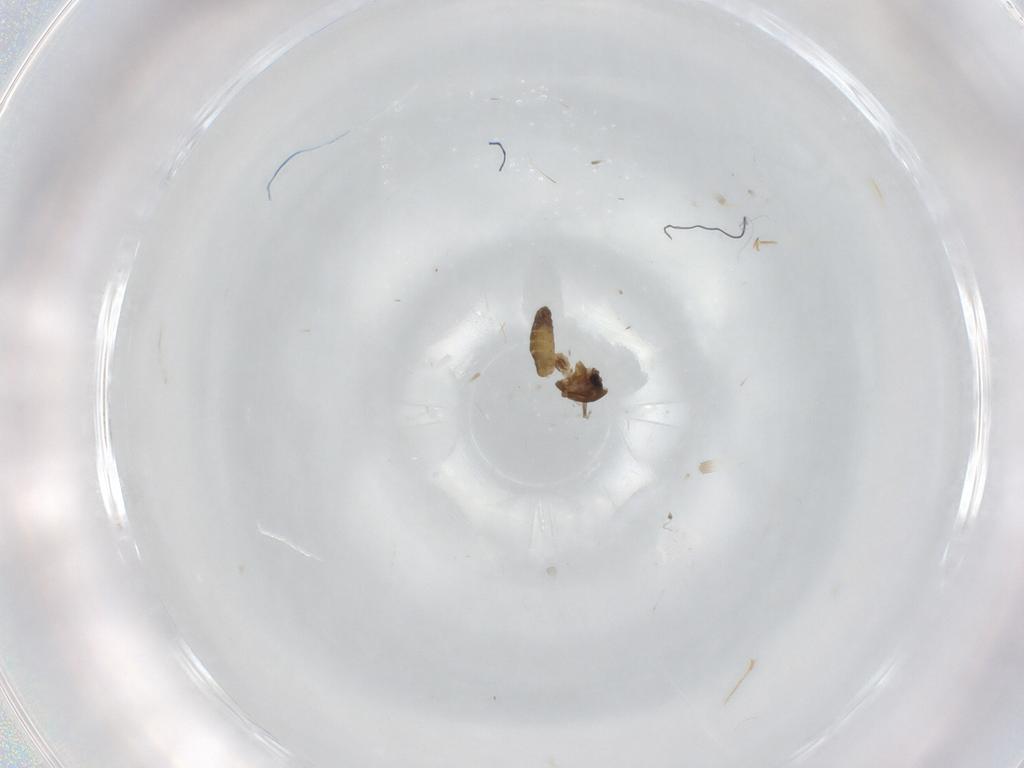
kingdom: Animalia
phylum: Arthropoda
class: Insecta
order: Diptera
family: Chironomidae
